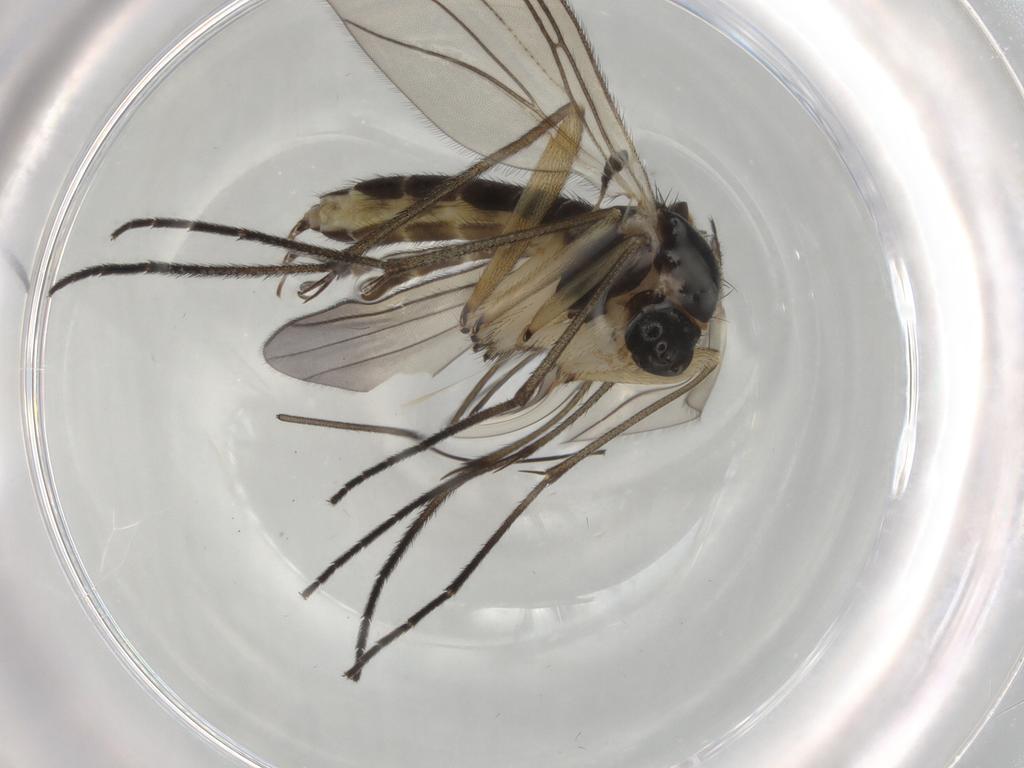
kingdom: Animalia
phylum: Arthropoda
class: Insecta
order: Diptera
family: Sciaridae
